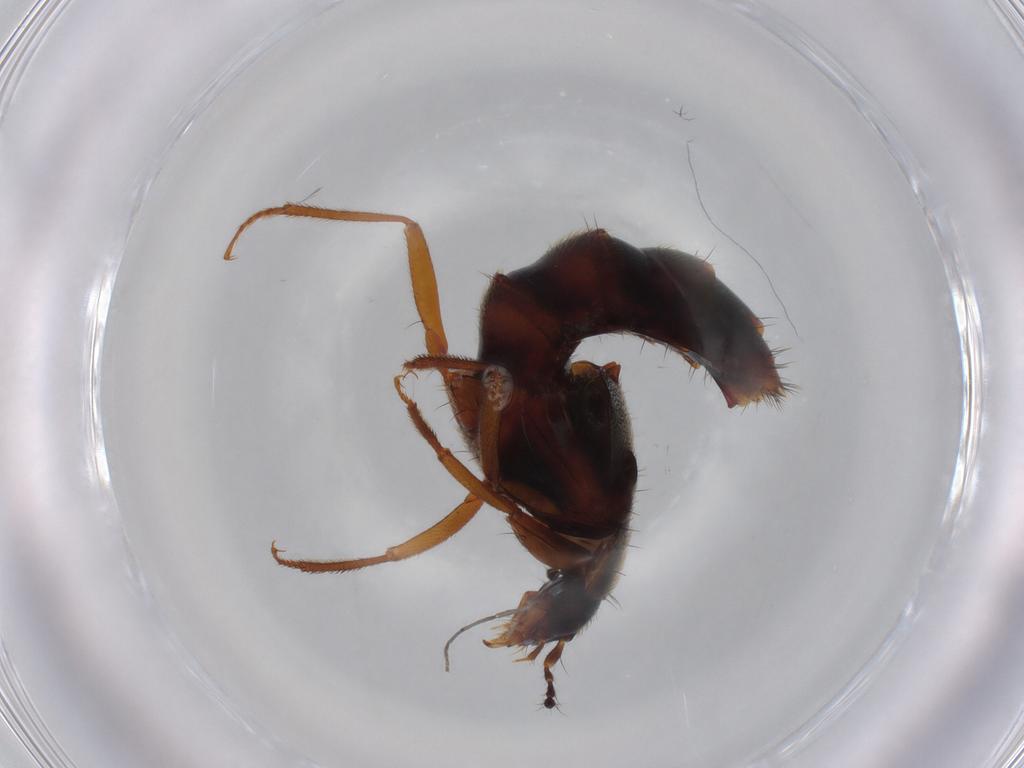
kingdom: Animalia
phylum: Arthropoda
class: Insecta
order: Coleoptera
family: Staphylinidae
